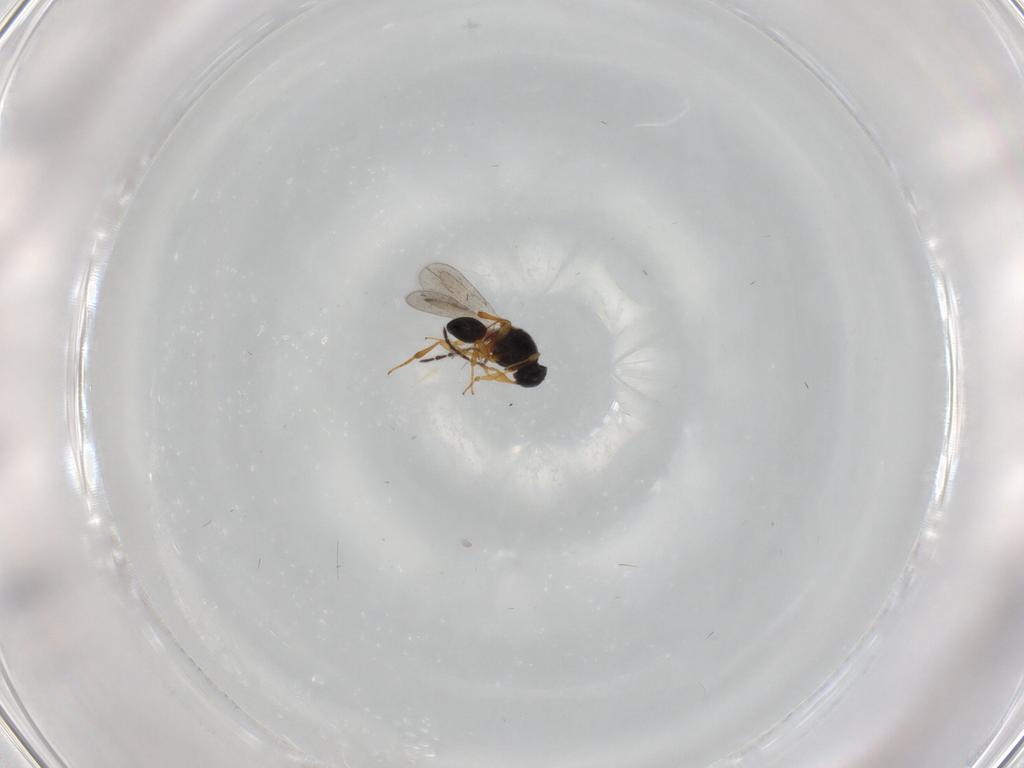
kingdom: Animalia
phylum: Arthropoda
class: Insecta
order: Hymenoptera
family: Platygastridae
